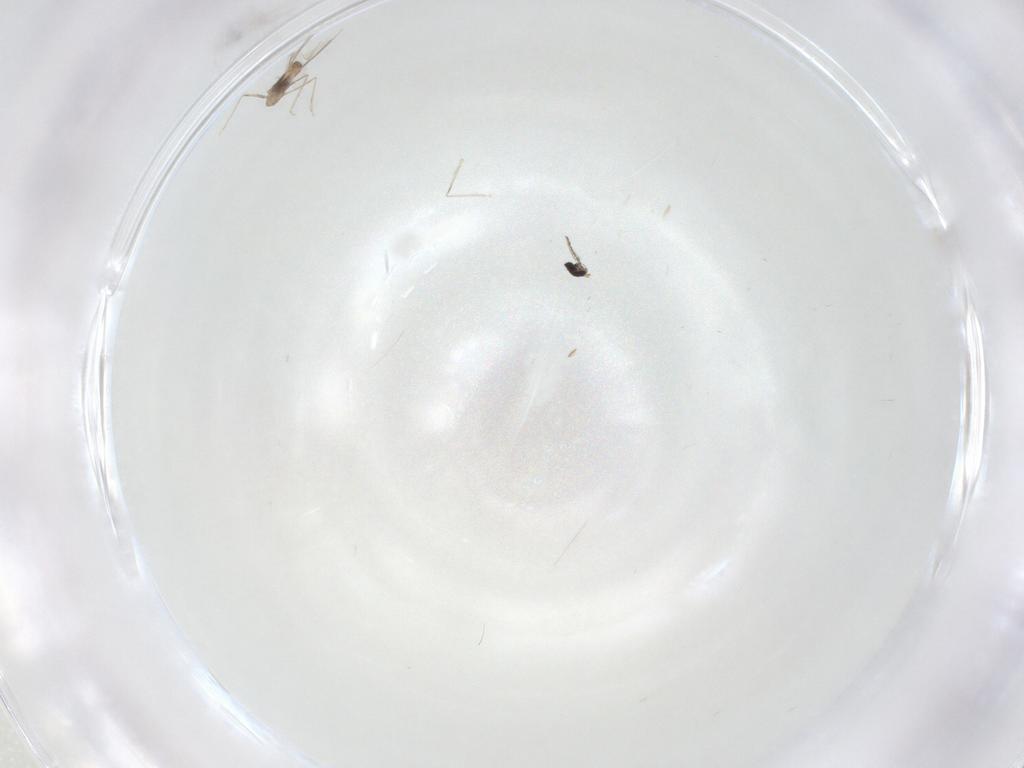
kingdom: Animalia
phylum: Arthropoda
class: Insecta
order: Diptera
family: Cecidomyiidae
